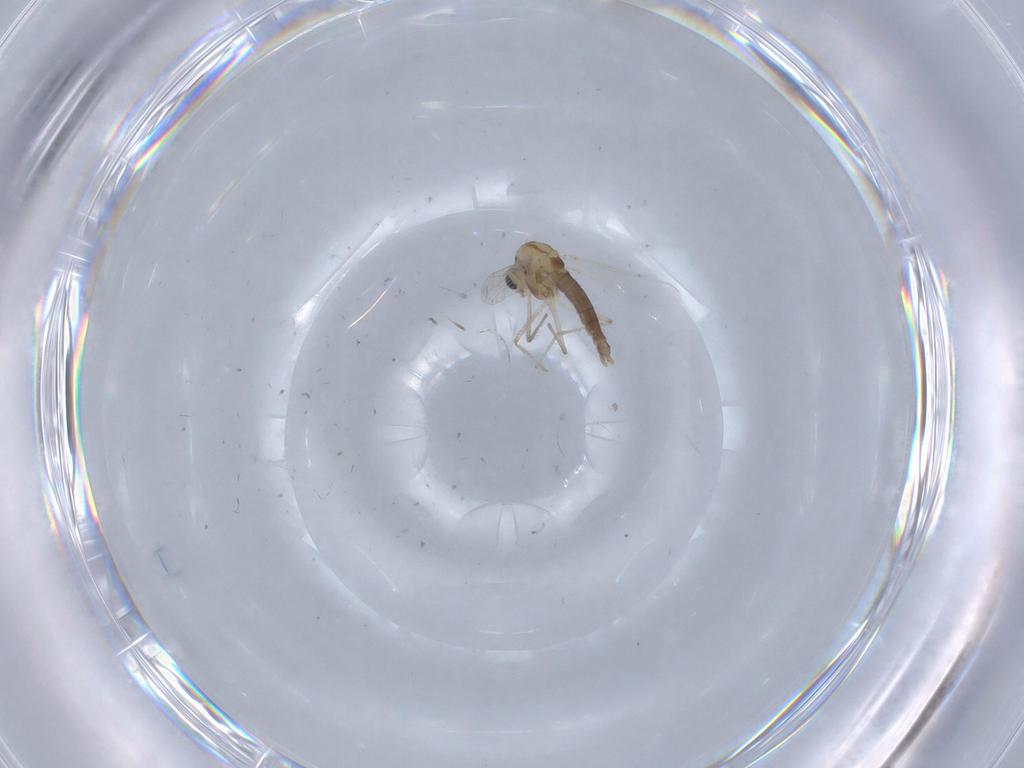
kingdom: Animalia
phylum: Arthropoda
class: Insecta
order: Diptera
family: Chironomidae
